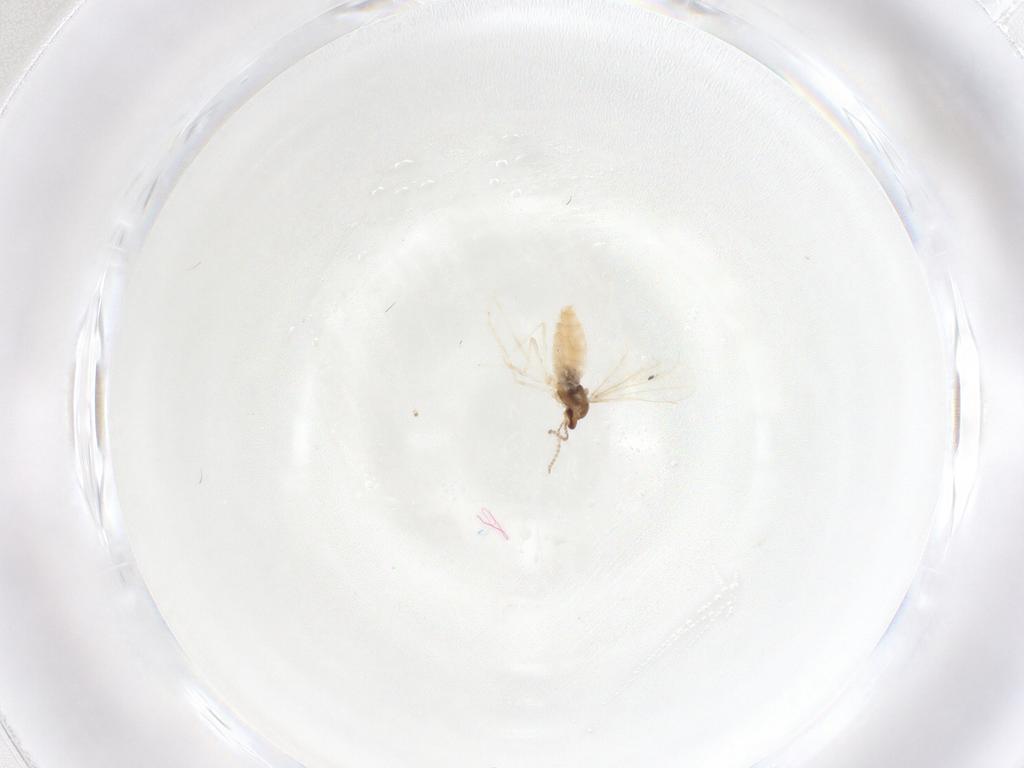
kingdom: Animalia
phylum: Arthropoda
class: Insecta
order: Diptera
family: Cecidomyiidae
